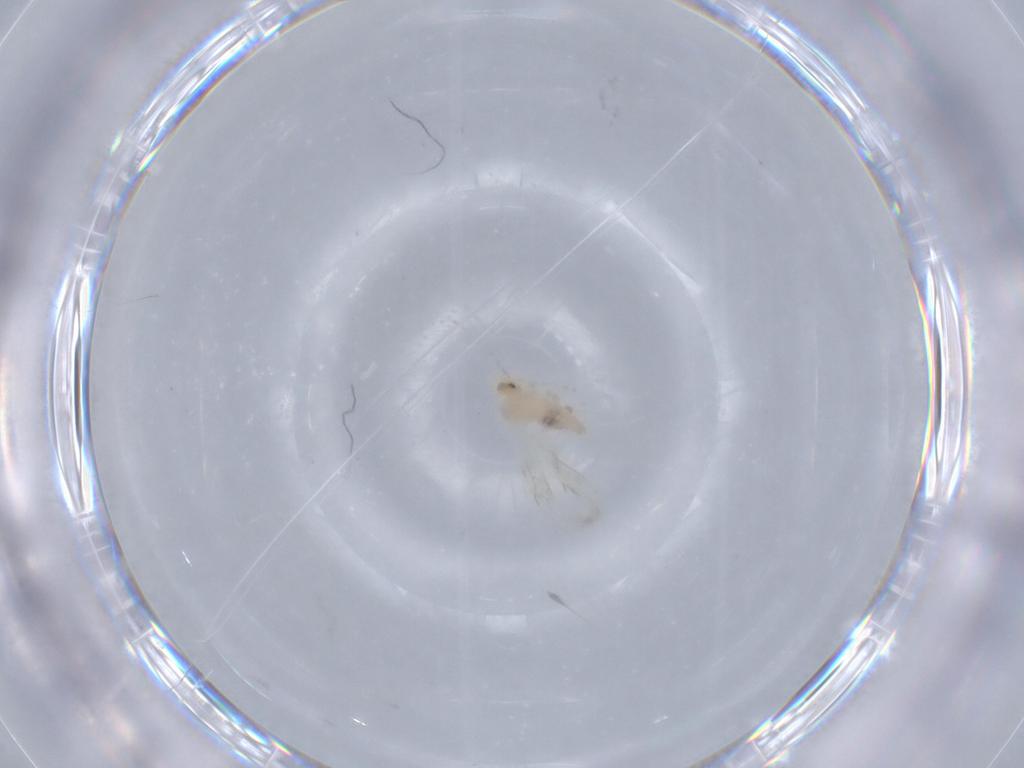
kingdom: Animalia
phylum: Arthropoda
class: Insecta
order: Diptera
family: Cecidomyiidae
